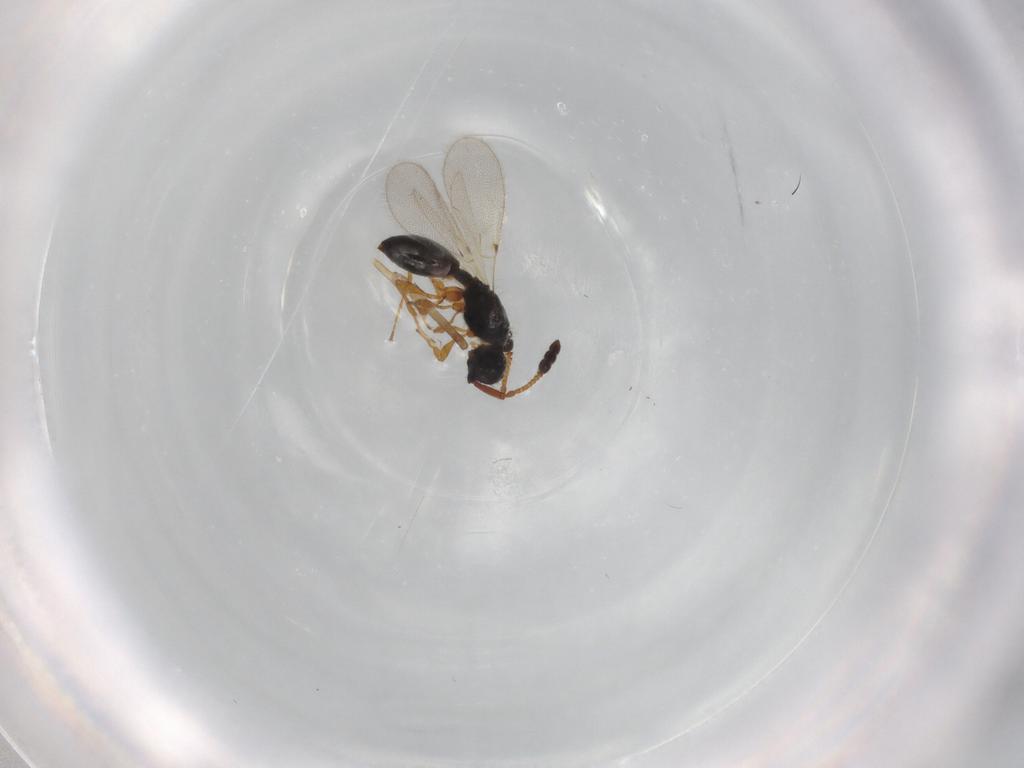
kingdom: Animalia
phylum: Arthropoda
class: Insecta
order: Hymenoptera
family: Diapriidae
